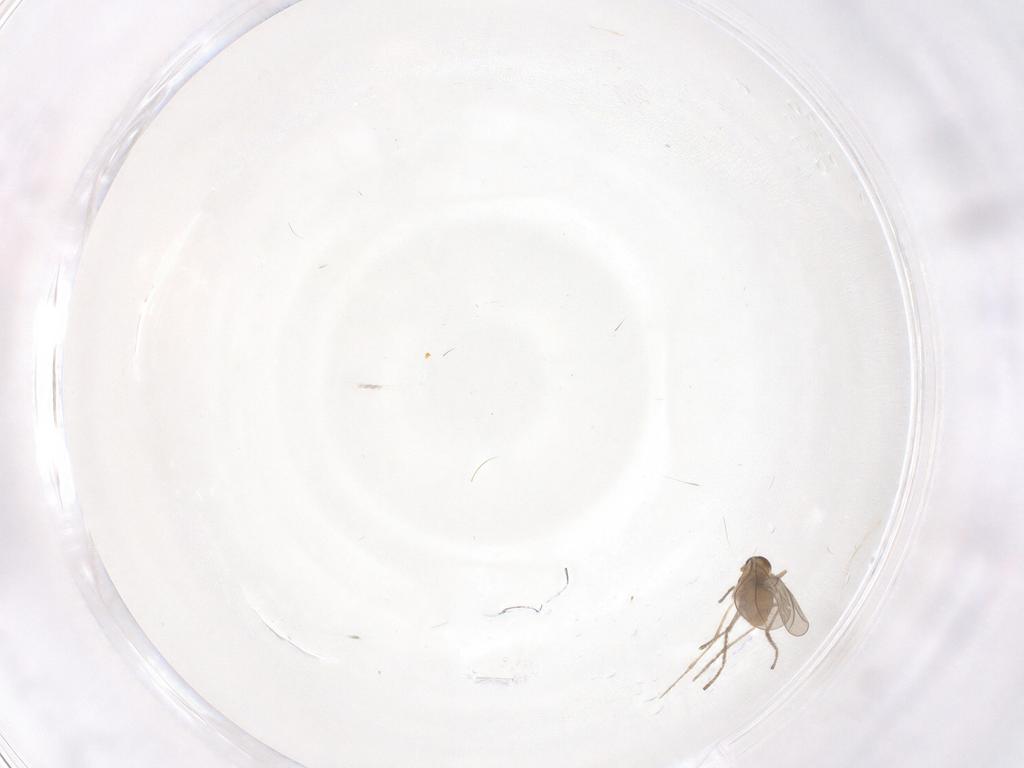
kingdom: Animalia
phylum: Arthropoda
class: Insecta
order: Diptera
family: Cecidomyiidae
